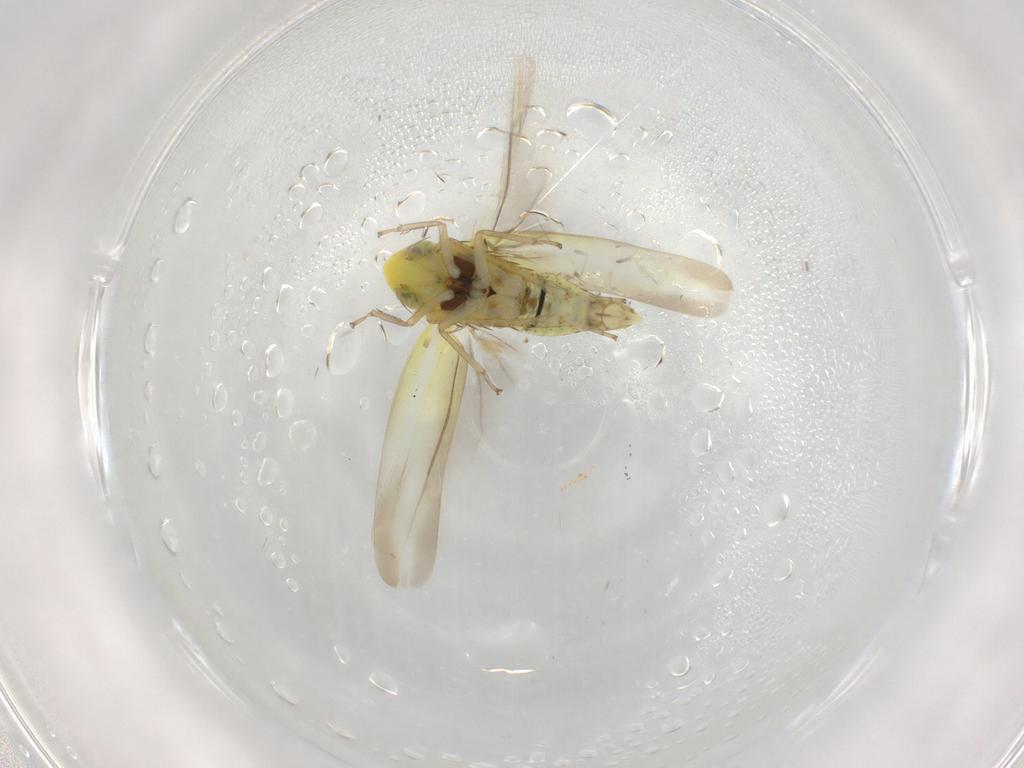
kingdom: Animalia
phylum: Arthropoda
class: Insecta
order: Hemiptera
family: Cicadellidae
